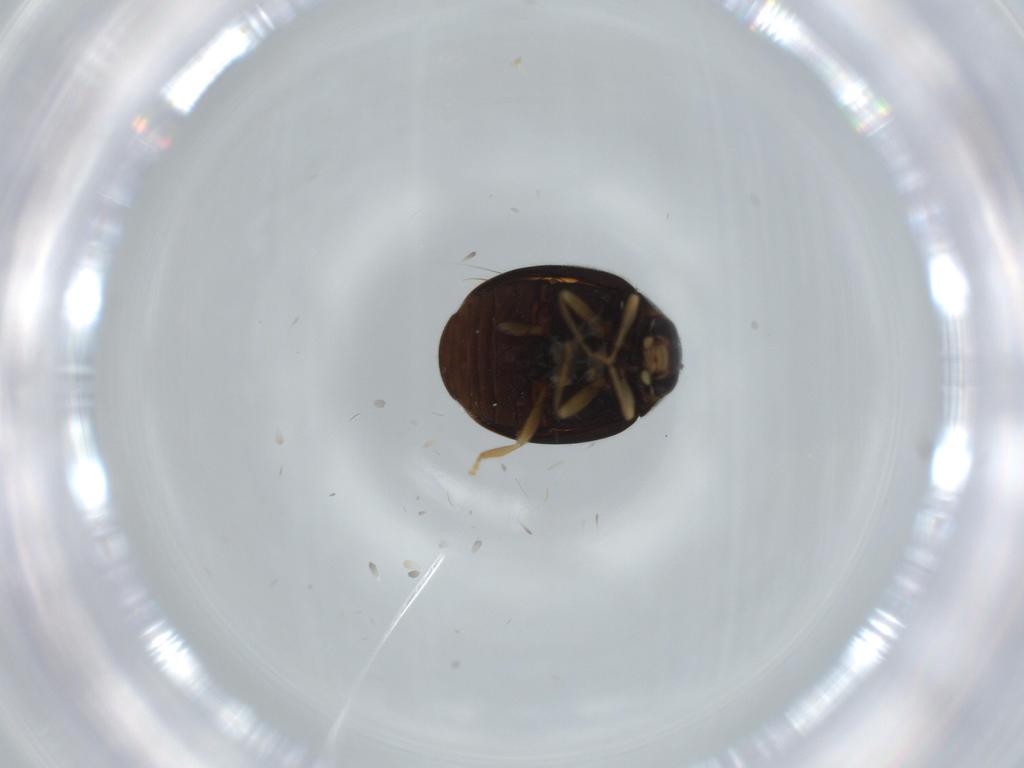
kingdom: Animalia
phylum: Arthropoda
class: Insecta
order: Coleoptera
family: Coccinellidae
